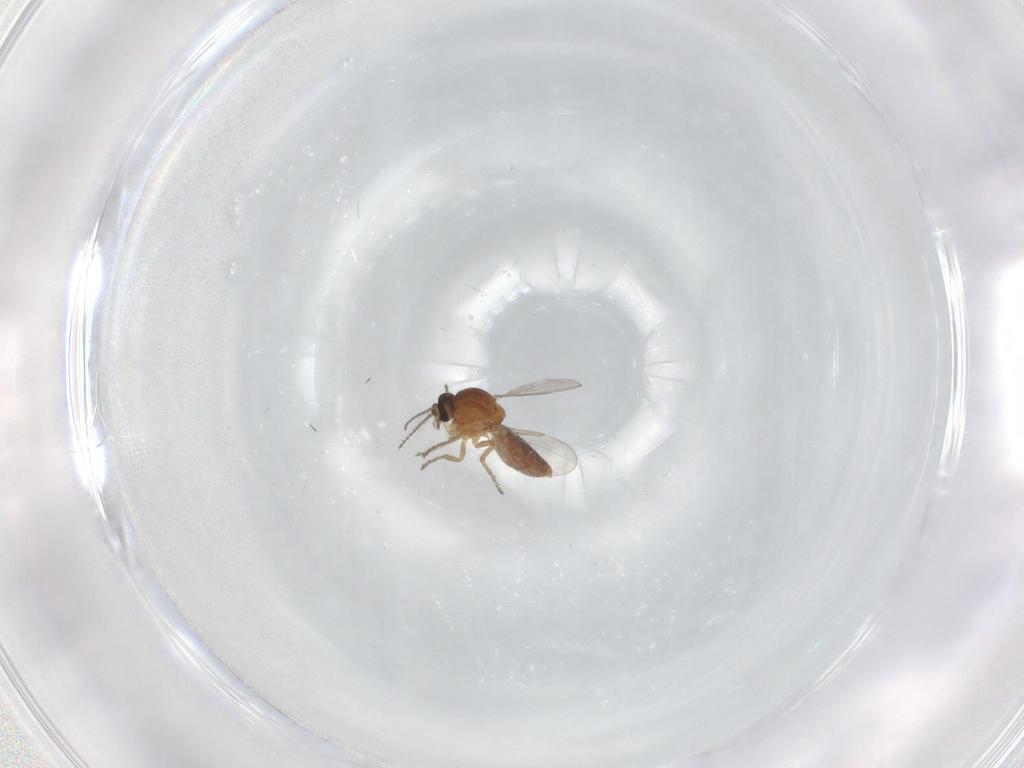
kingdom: Animalia
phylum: Arthropoda
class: Insecta
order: Diptera
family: Ceratopogonidae
